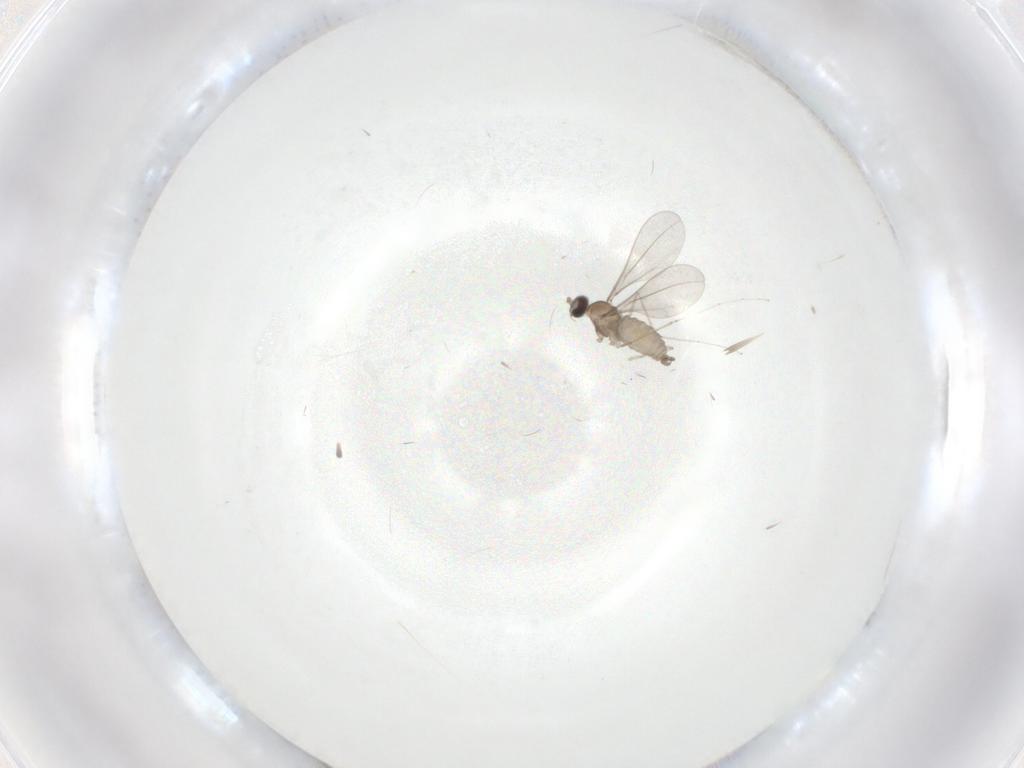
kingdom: Animalia
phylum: Arthropoda
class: Insecta
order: Diptera
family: Cecidomyiidae
